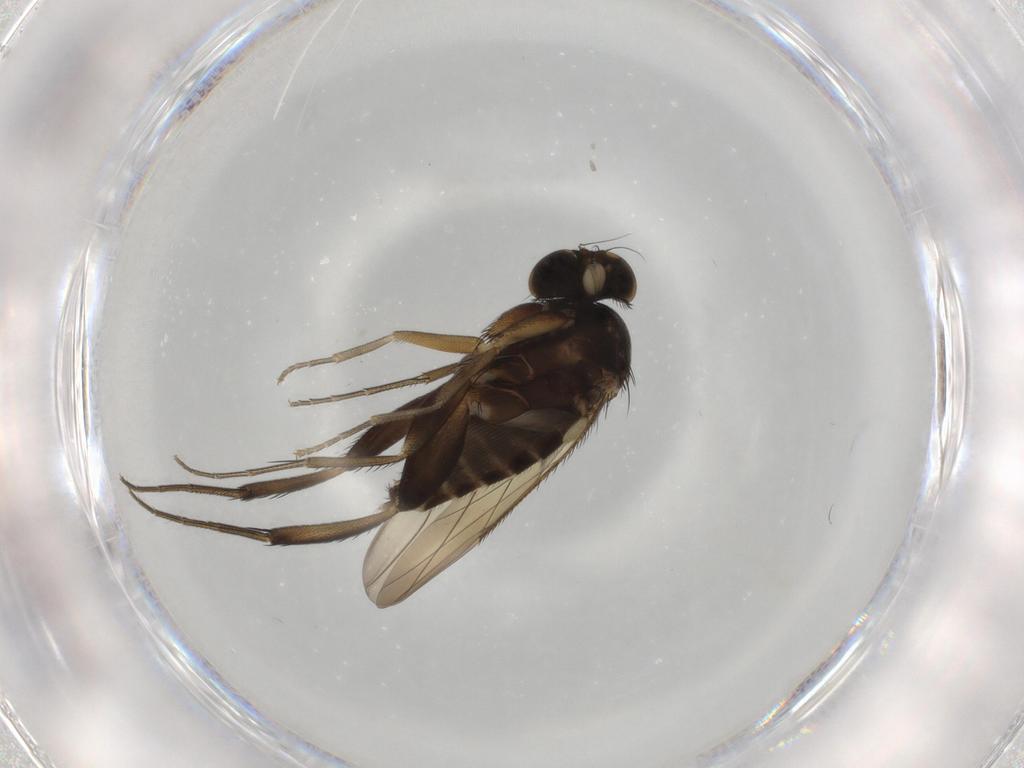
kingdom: Animalia
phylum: Arthropoda
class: Insecta
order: Diptera
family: Phoridae
